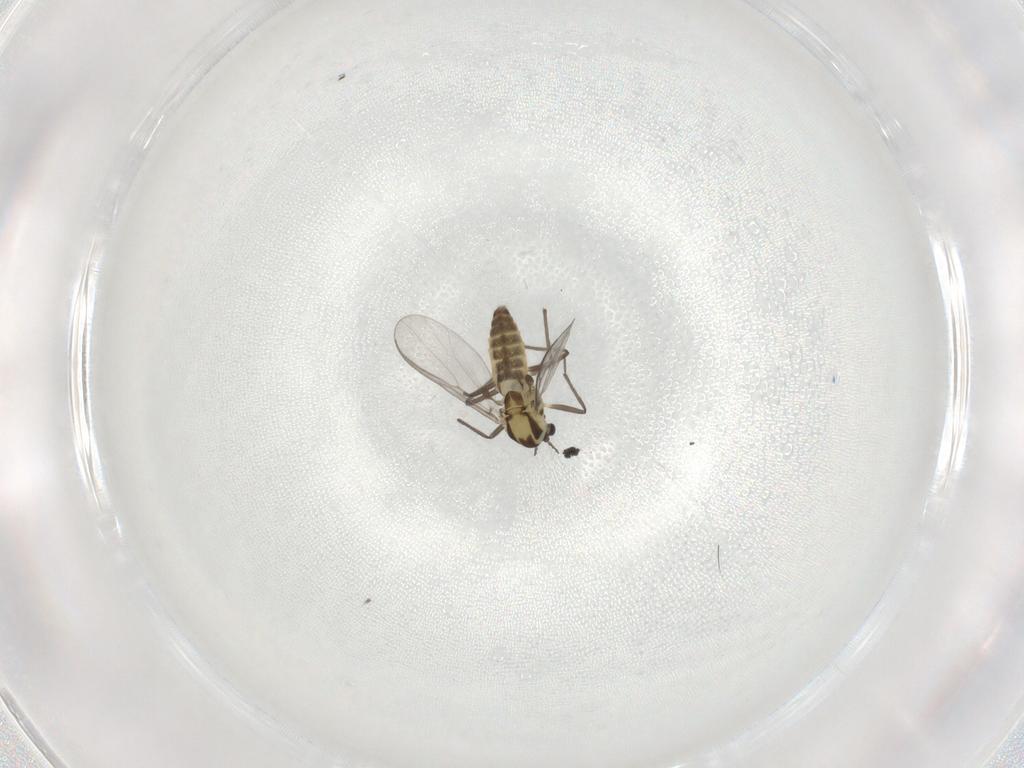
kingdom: Animalia
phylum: Arthropoda
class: Insecta
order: Diptera
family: Chironomidae
